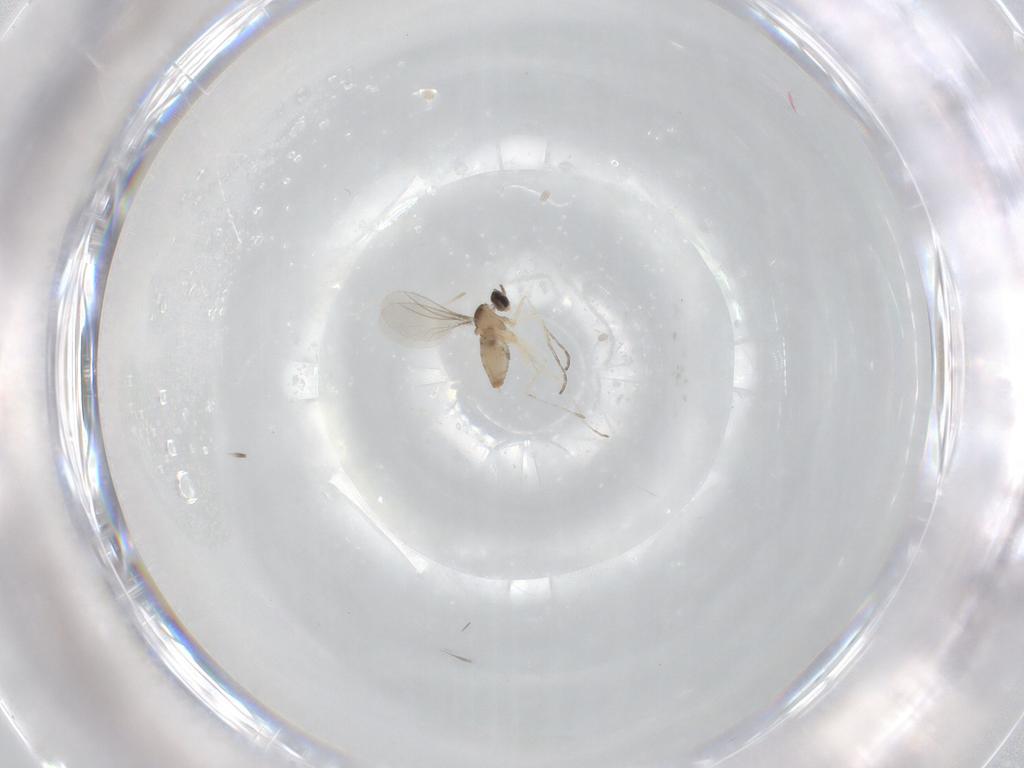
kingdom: Animalia
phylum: Arthropoda
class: Insecta
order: Diptera
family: Cecidomyiidae
